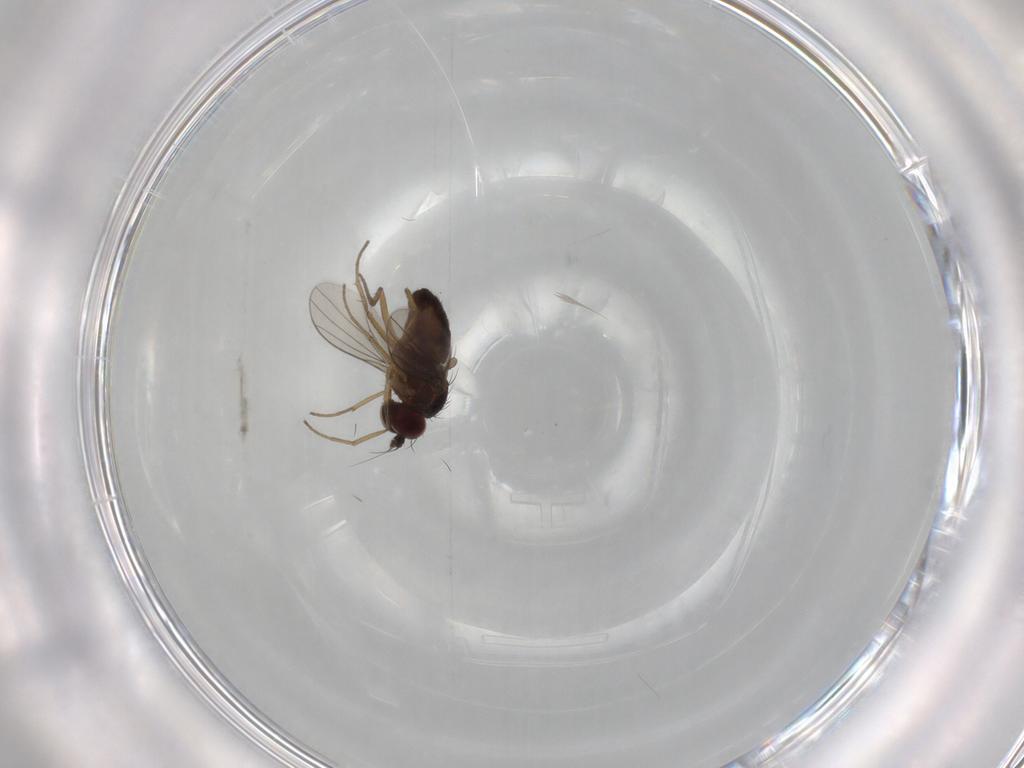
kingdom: Animalia
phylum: Arthropoda
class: Insecta
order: Diptera
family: Dolichopodidae
